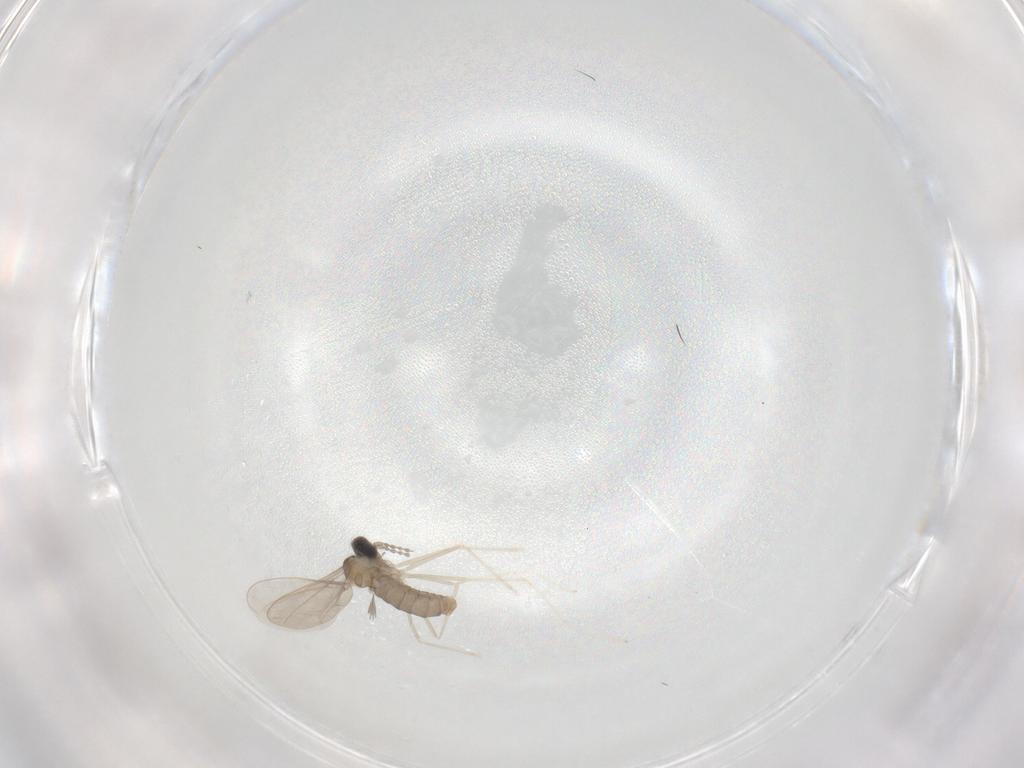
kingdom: Animalia
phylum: Arthropoda
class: Insecta
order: Diptera
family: Cecidomyiidae
